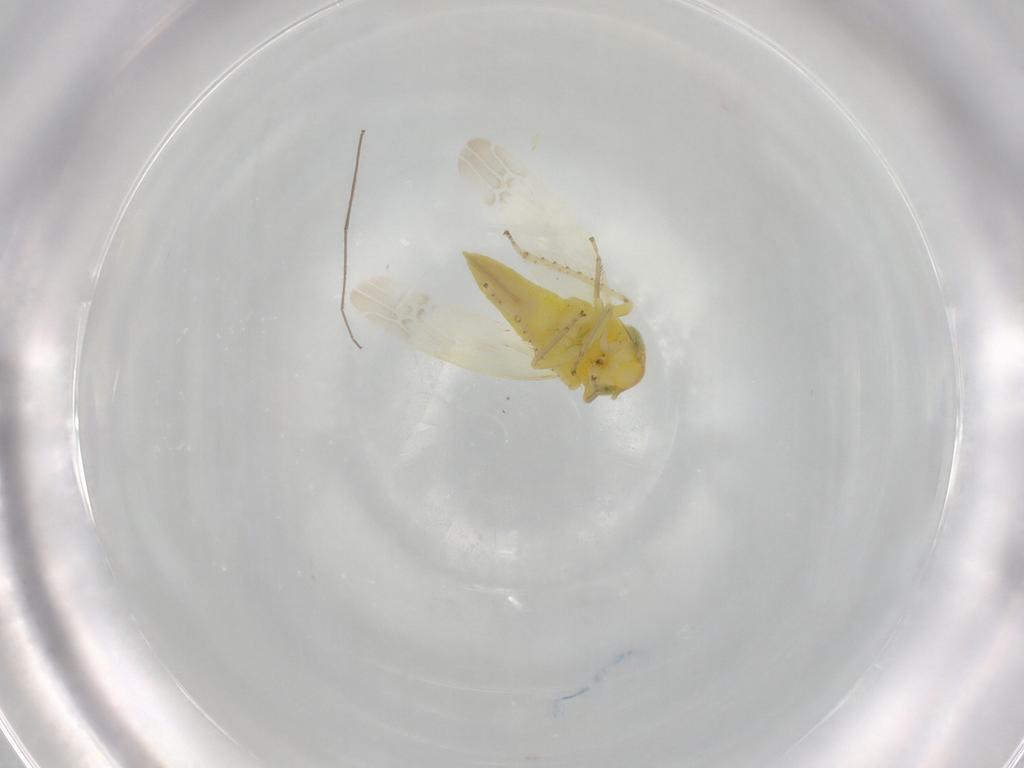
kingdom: Animalia
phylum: Arthropoda
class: Insecta
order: Hemiptera
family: Cicadellidae
